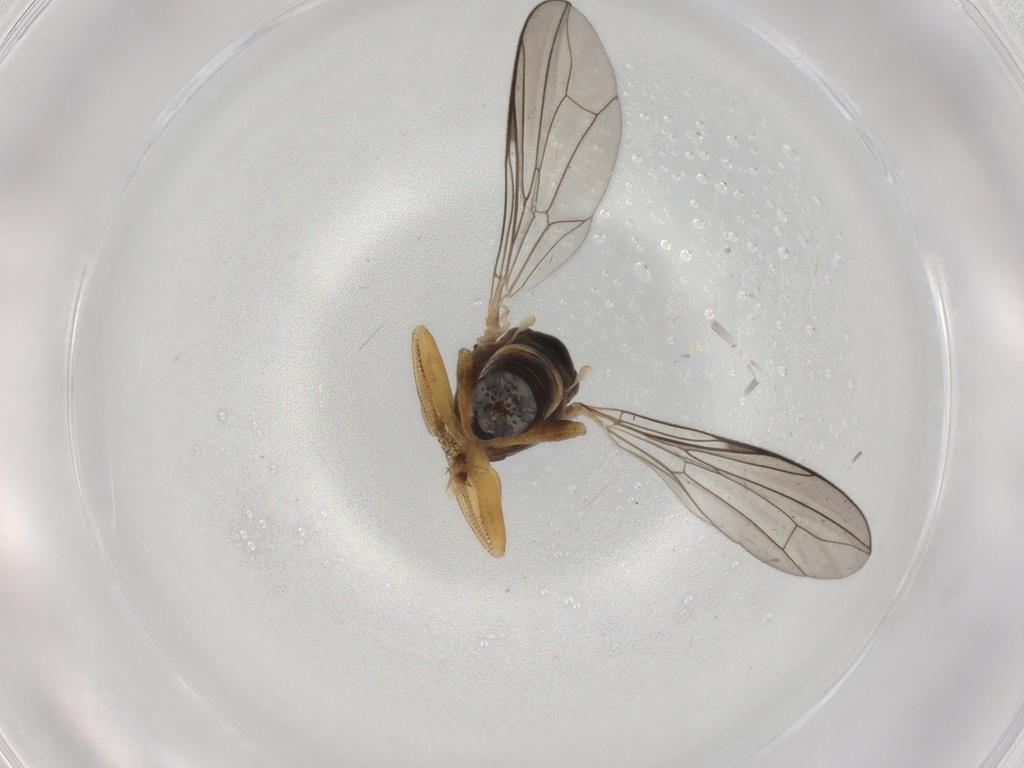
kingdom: Animalia
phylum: Arthropoda
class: Insecta
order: Diptera
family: Pipunculidae
